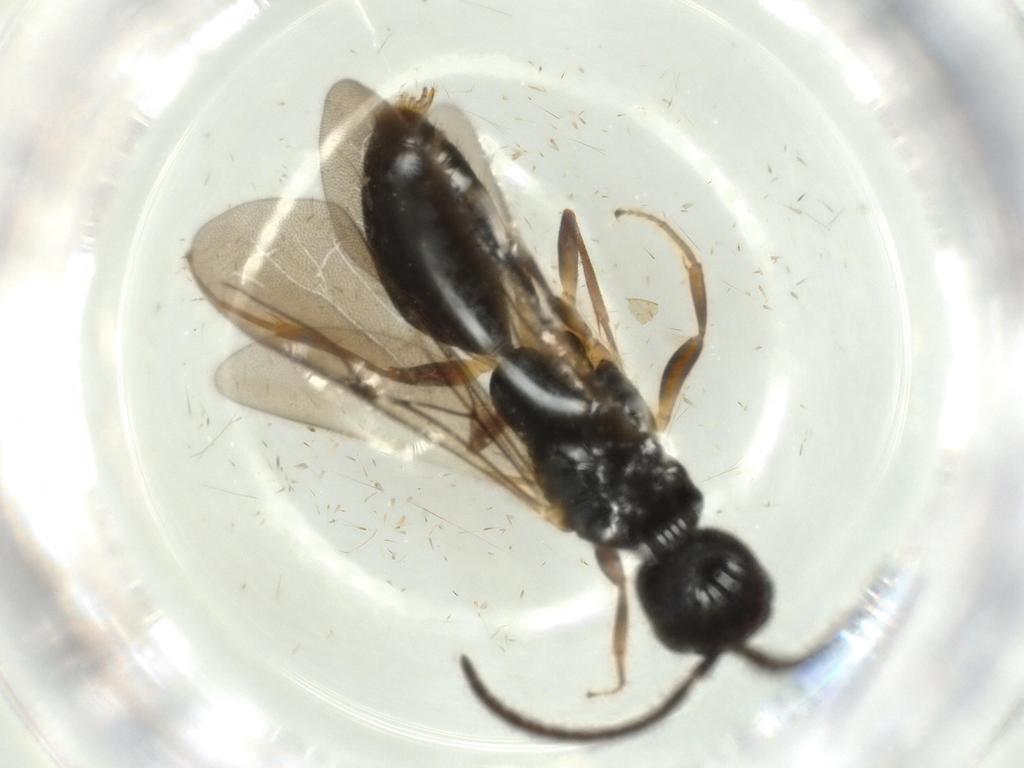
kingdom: Animalia
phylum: Arthropoda
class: Insecta
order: Hymenoptera
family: Bethylidae
